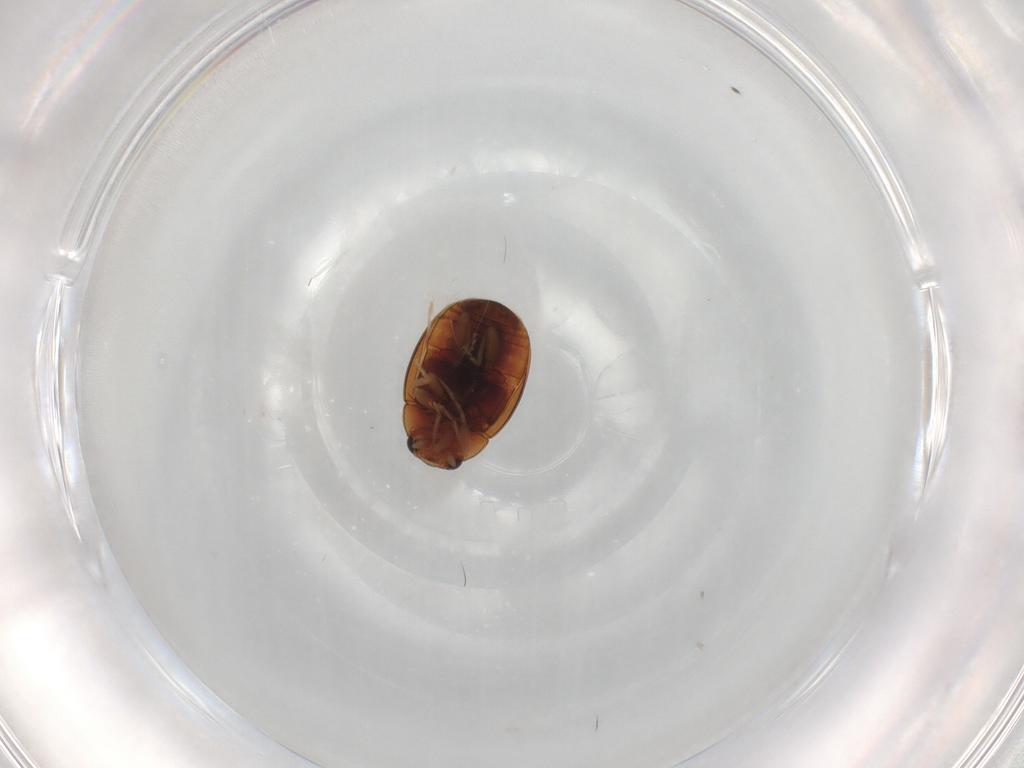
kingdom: Animalia
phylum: Arthropoda
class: Insecta
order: Coleoptera
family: Coccinellidae
